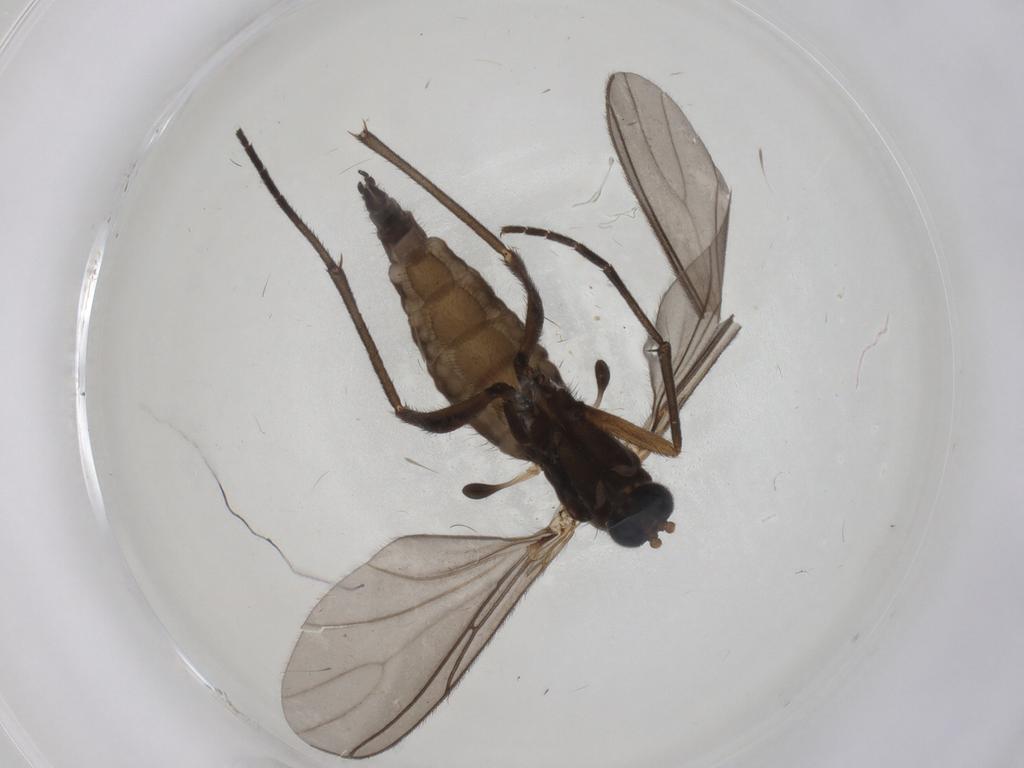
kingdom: Animalia
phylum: Arthropoda
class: Insecta
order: Diptera
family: Sciaridae
